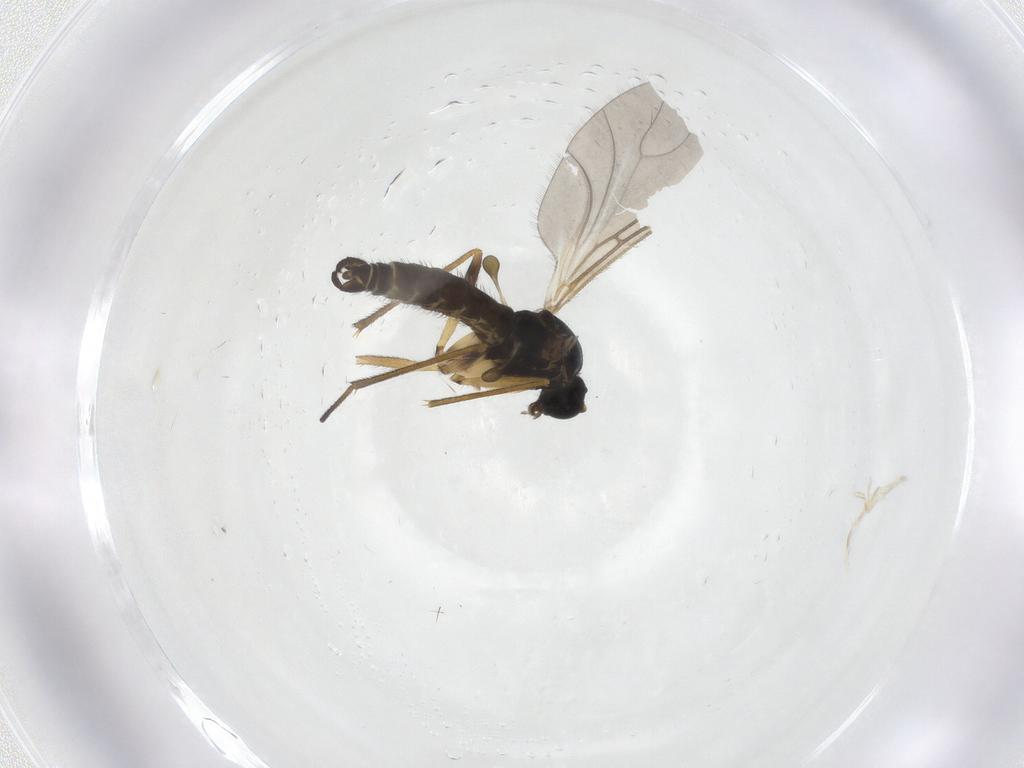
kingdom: Animalia
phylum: Arthropoda
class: Insecta
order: Diptera
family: Sciaridae
